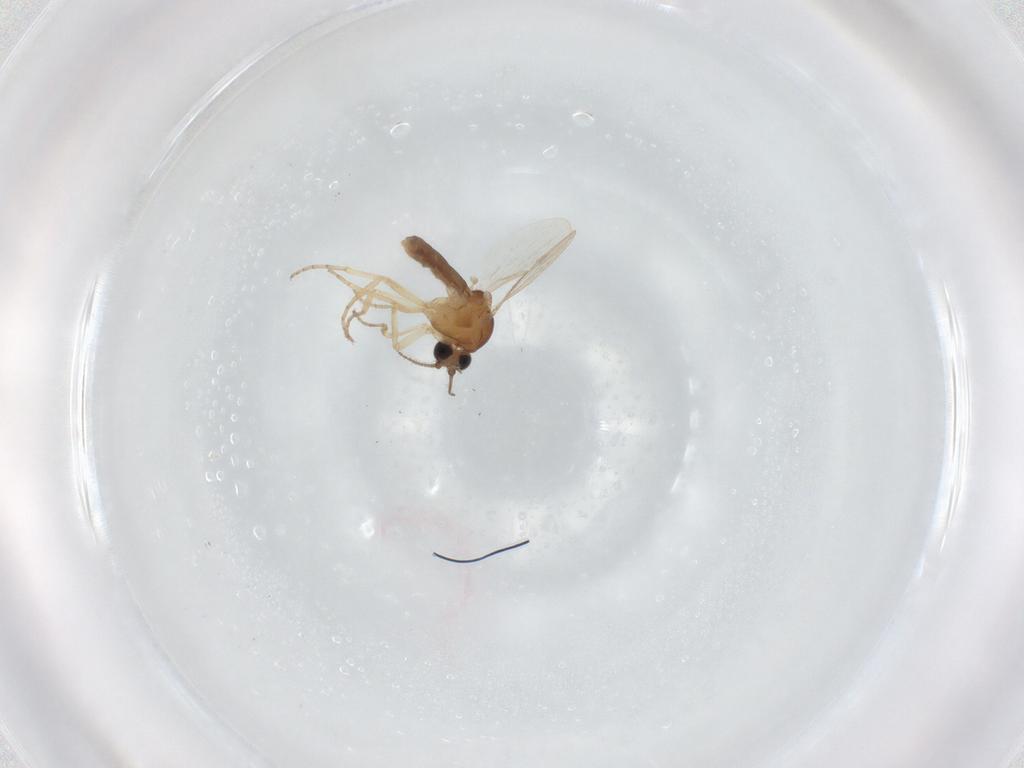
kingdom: Animalia
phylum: Arthropoda
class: Insecta
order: Diptera
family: Ceratopogonidae
